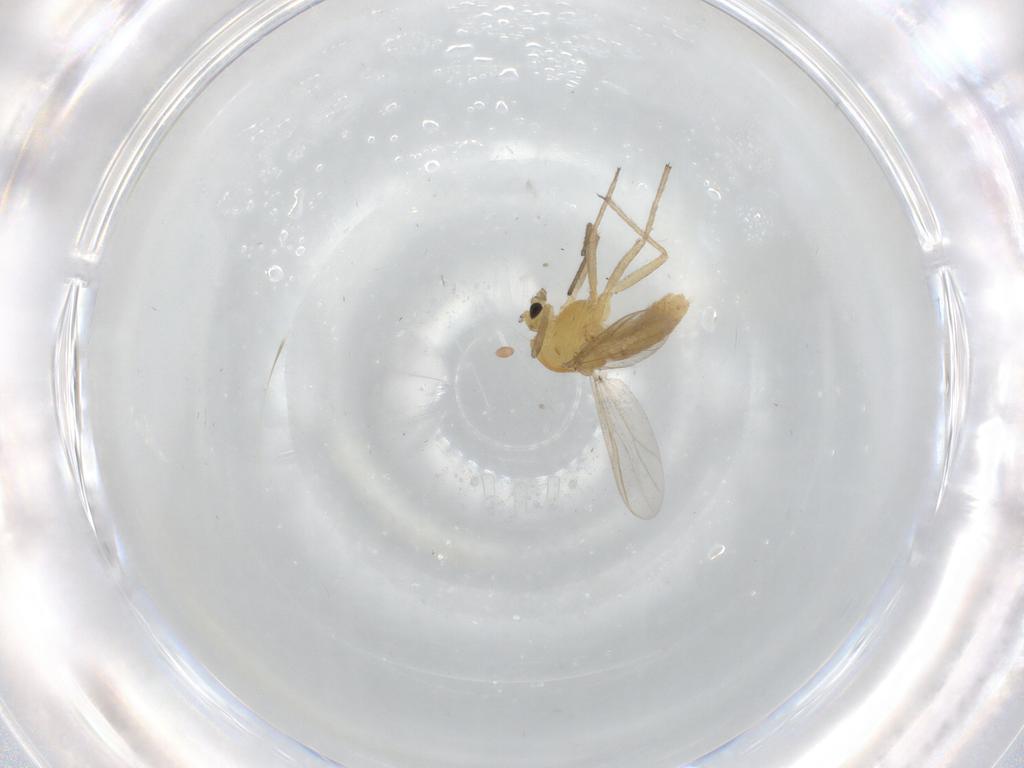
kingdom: Animalia
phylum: Arthropoda
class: Insecta
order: Diptera
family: Chironomidae
